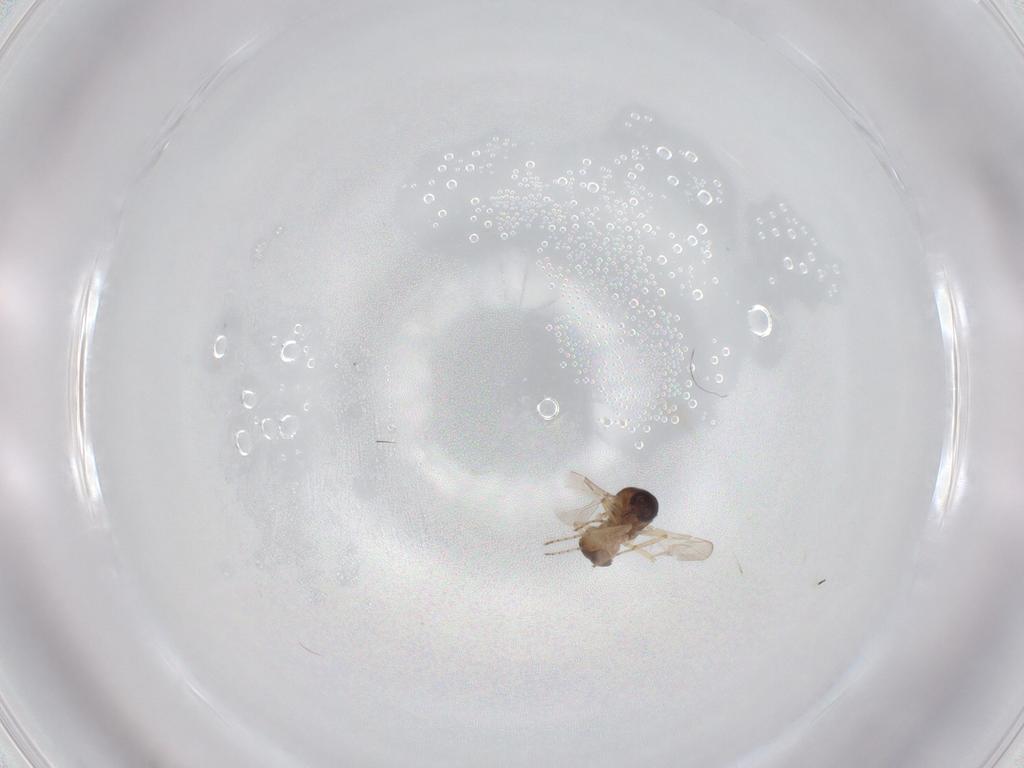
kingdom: Animalia
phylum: Arthropoda
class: Insecta
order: Diptera
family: Ceratopogonidae
